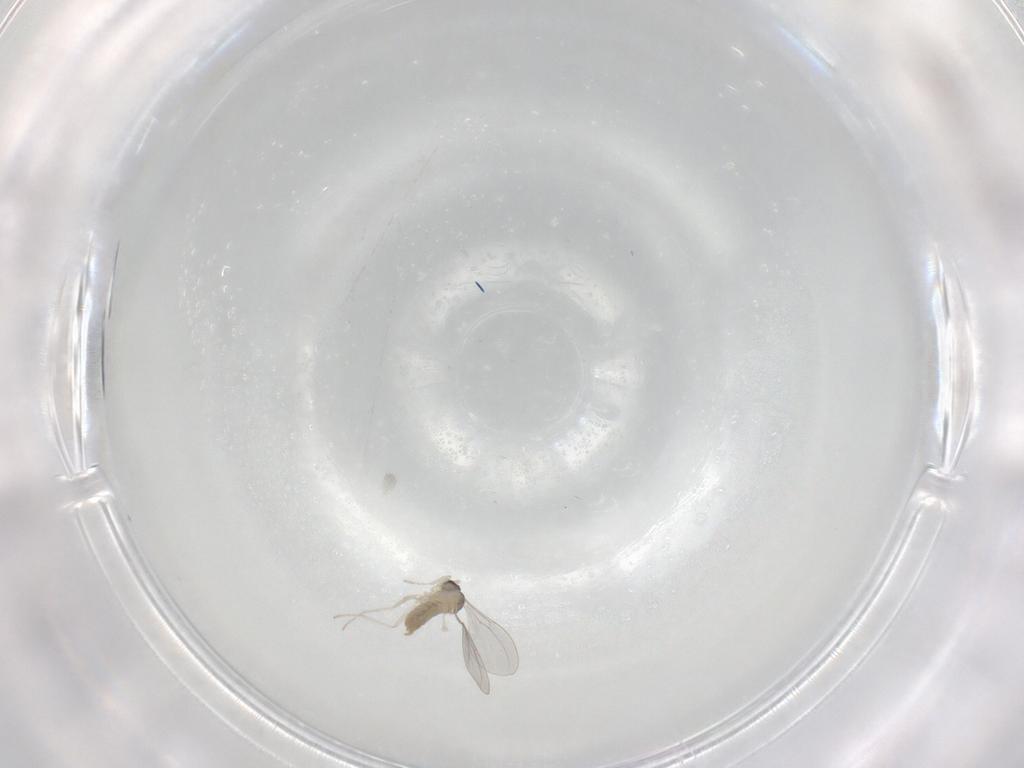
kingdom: Animalia
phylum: Arthropoda
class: Insecta
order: Diptera
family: Cecidomyiidae
